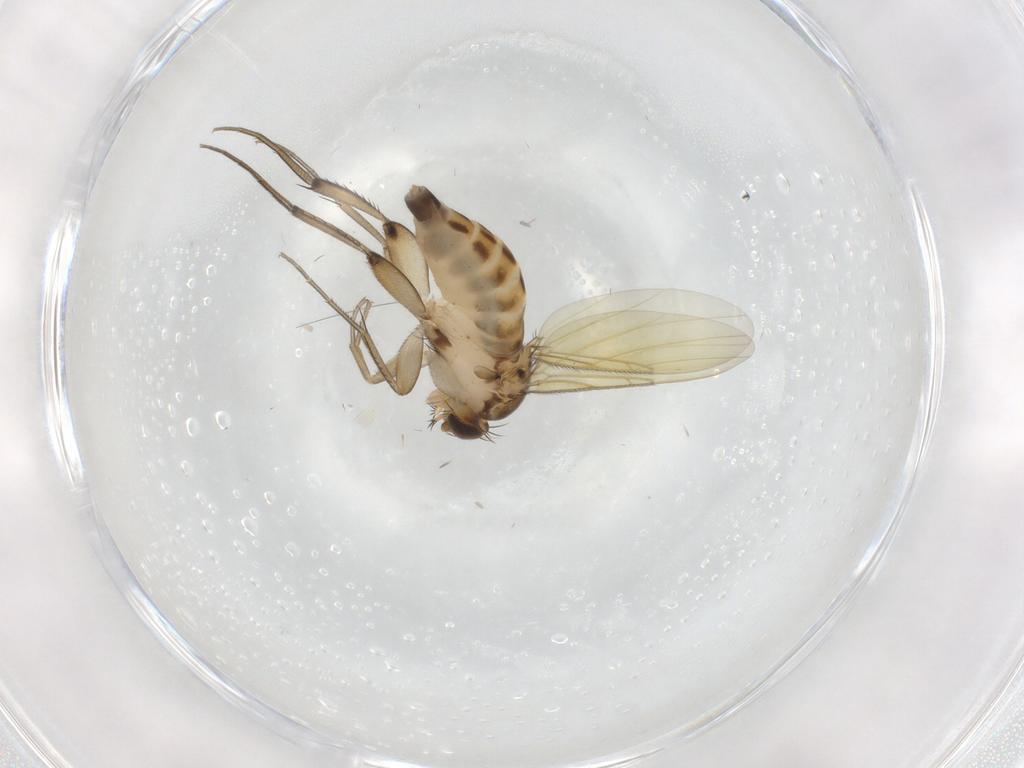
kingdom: Animalia
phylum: Arthropoda
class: Insecta
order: Diptera
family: Phoridae
